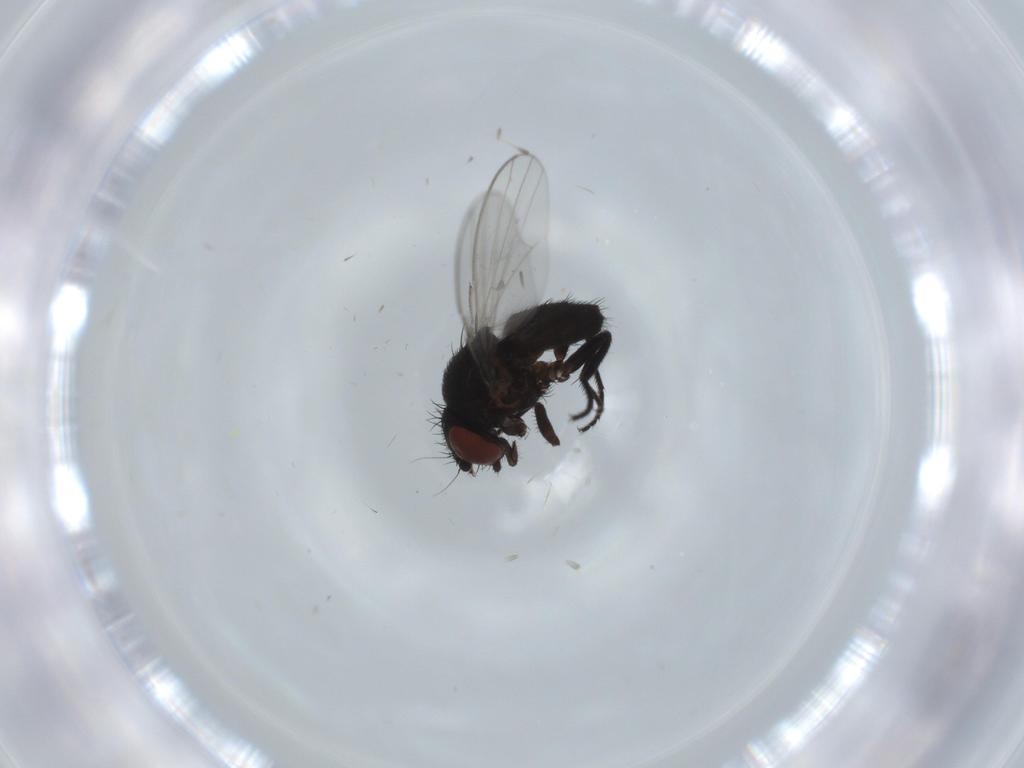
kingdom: Animalia
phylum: Arthropoda
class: Insecta
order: Diptera
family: Milichiidae
